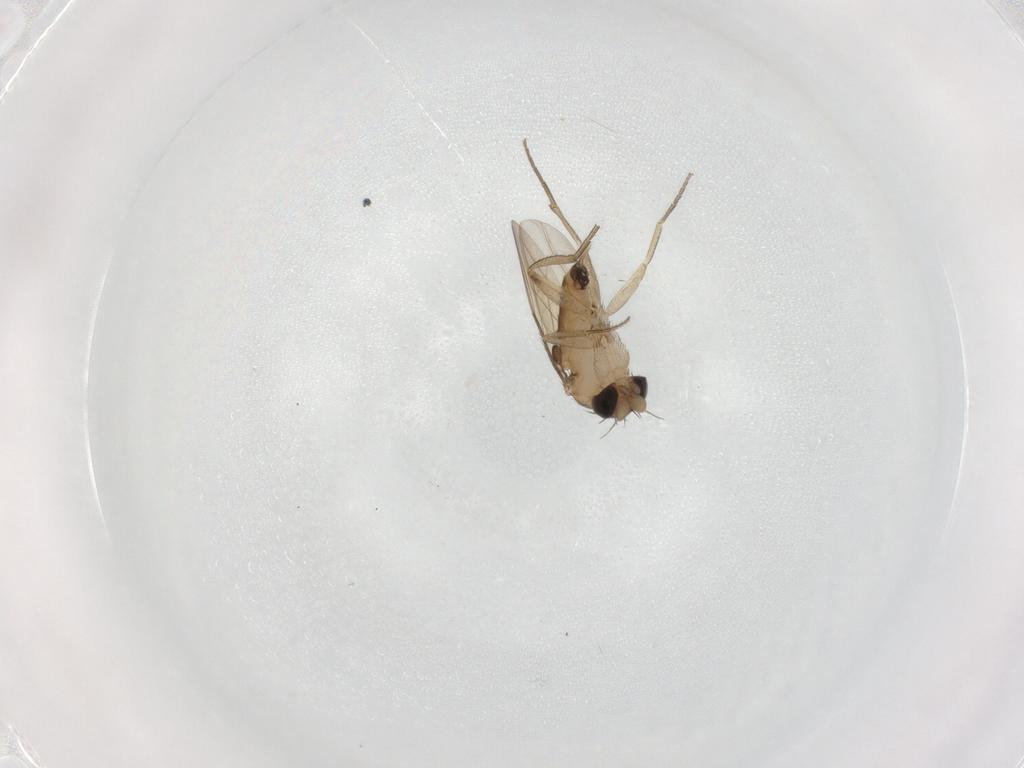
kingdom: Animalia
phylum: Arthropoda
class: Insecta
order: Diptera
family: Phoridae
